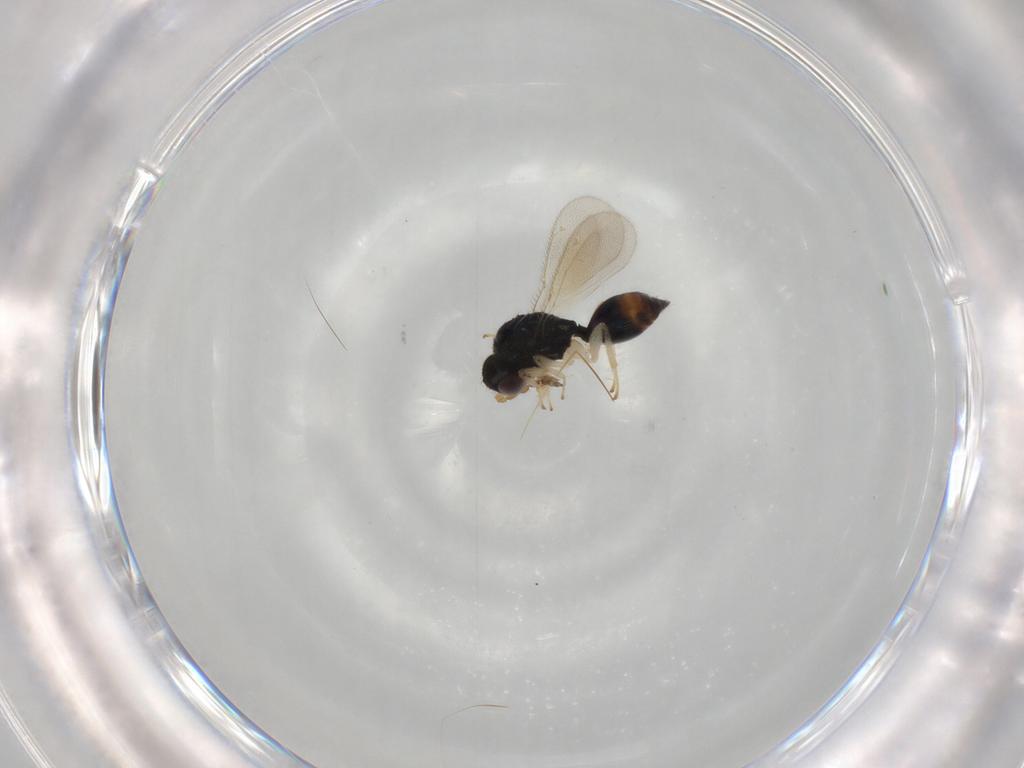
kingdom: Animalia
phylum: Arthropoda
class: Insecta
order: Hymenoptera
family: Eulophidae
